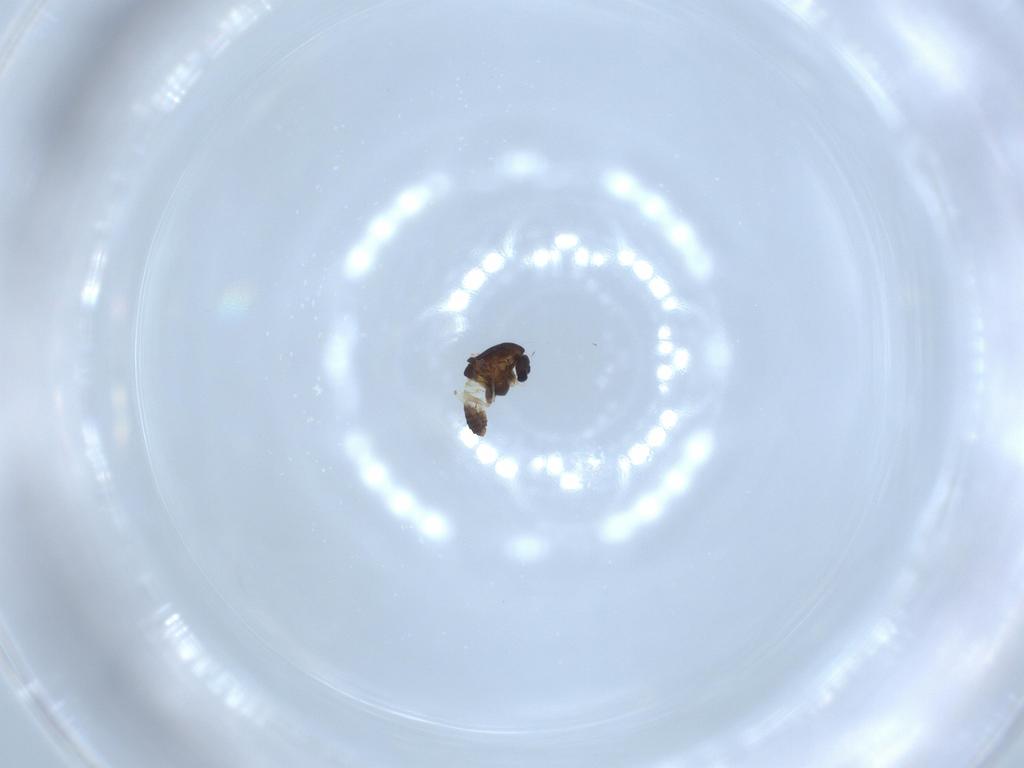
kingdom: Animalia
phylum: Arthropoda
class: Insecta
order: Diptera
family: Chironomidae
